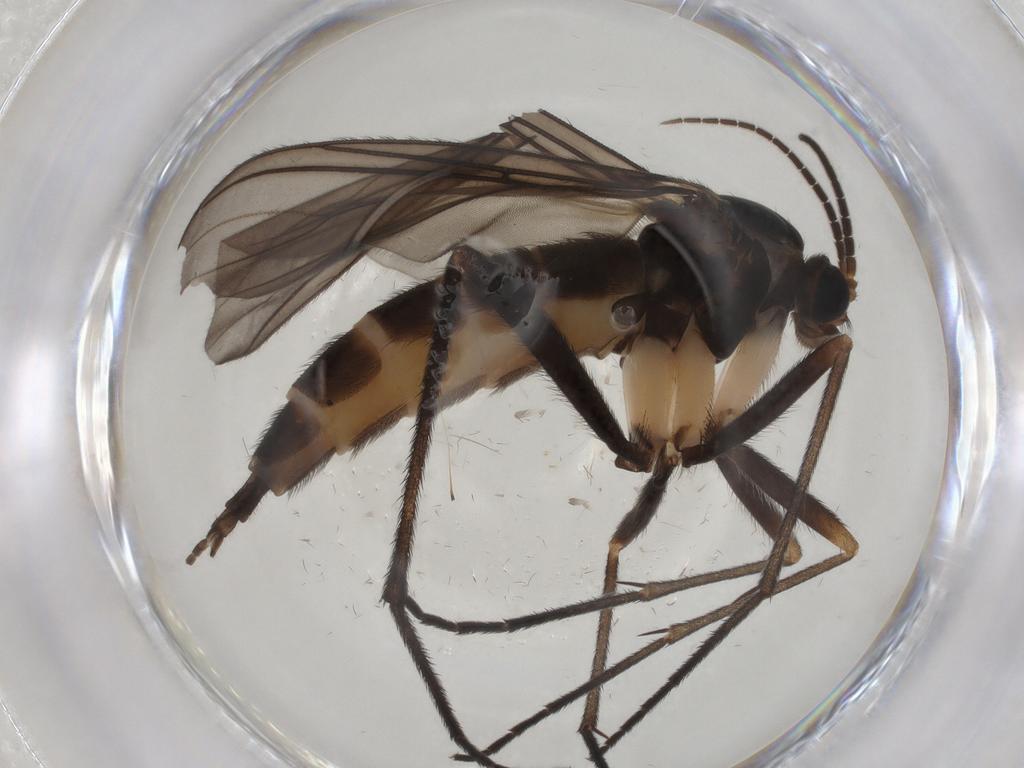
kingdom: Animalia
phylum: Arthropoda
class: Insecta
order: Diptera
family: Sciaridae
